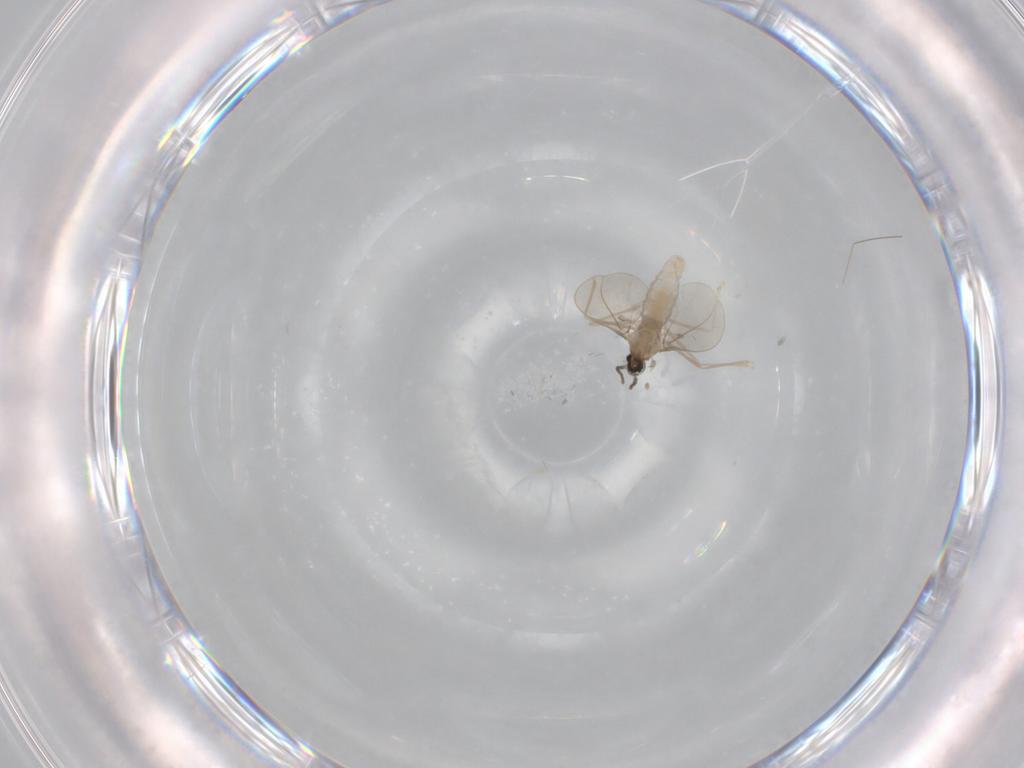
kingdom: Animalia
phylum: Arthropoda
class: Insecta
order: Diptera
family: Cecidomyiidae
